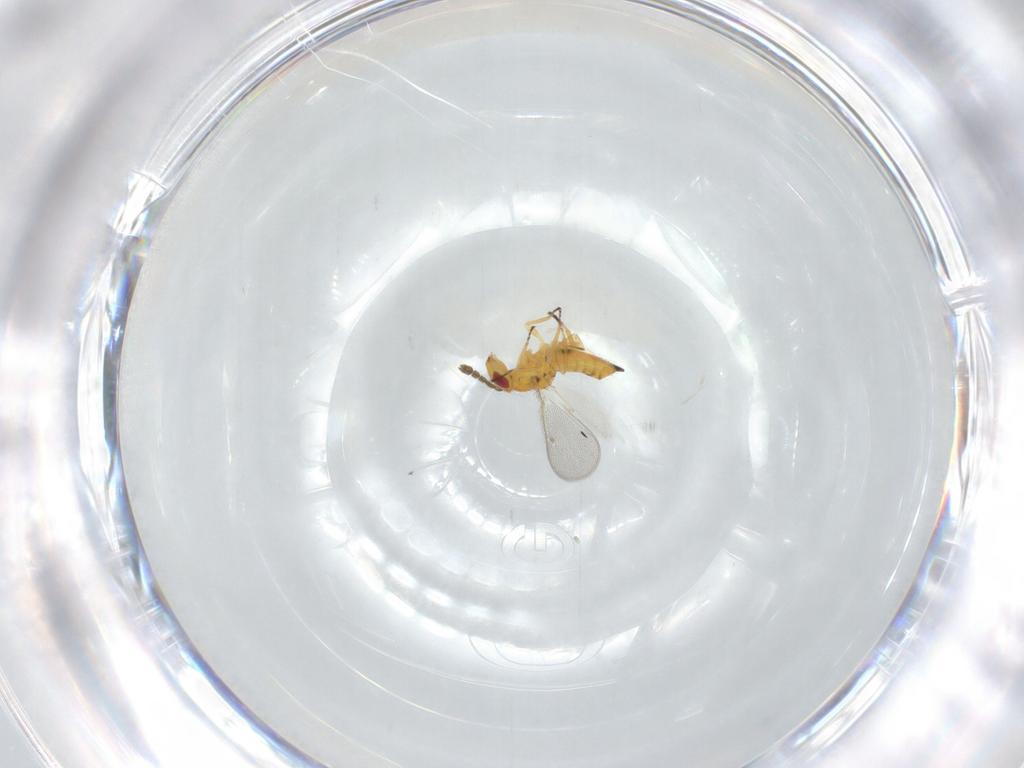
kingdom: Animalia
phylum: Arthropoda
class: Insecta
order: Hymenoptera
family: Eulophidae
